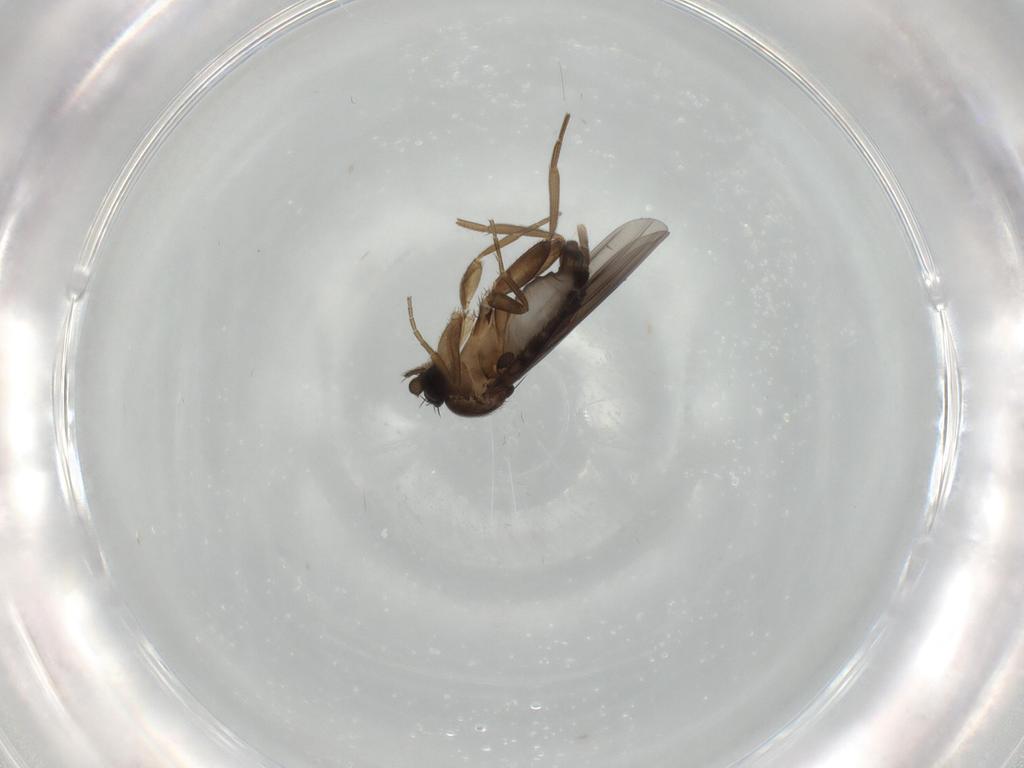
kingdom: Animalia
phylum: Arthropoda
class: Insecta
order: Diptera
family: Phoridae
